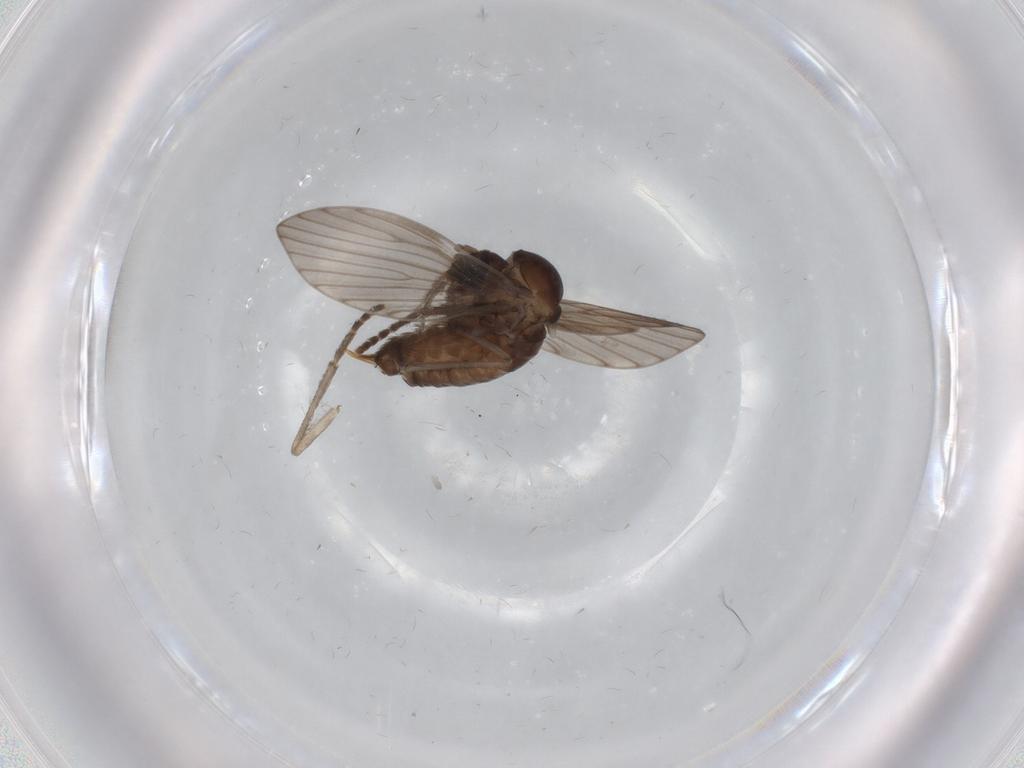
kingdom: Animalia
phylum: Arthropoda
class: Insecta
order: Diptera
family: Psychodidae
